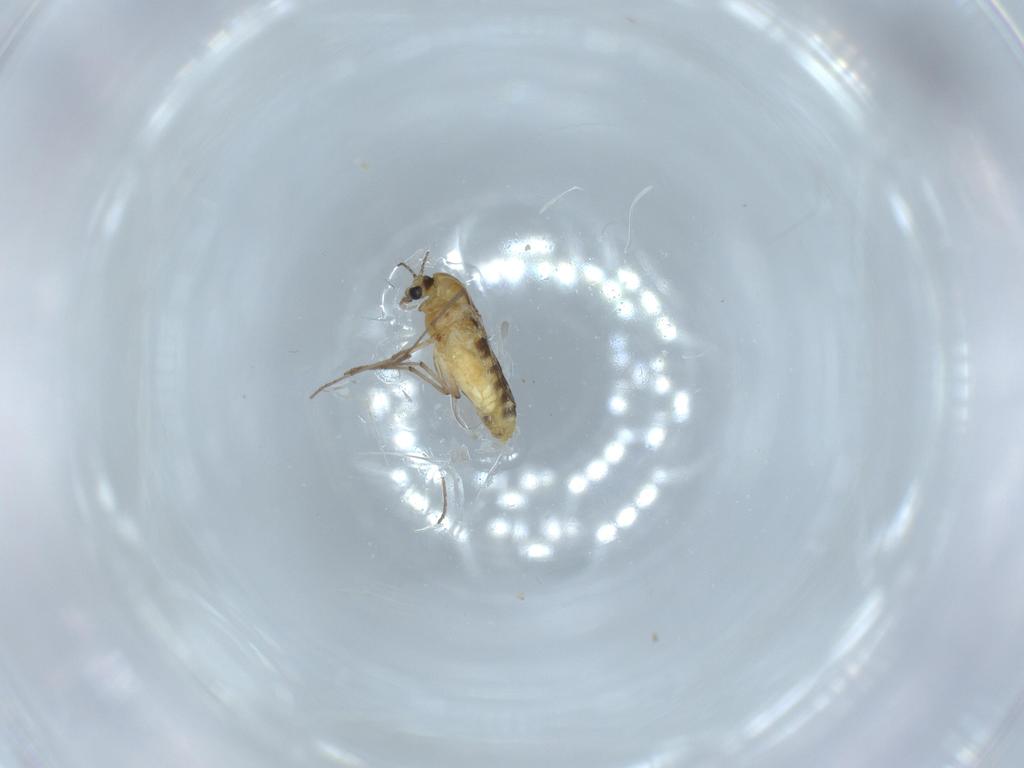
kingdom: Animalia
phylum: Arthropoda
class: Insecta
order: Diptera
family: Chironomidae
